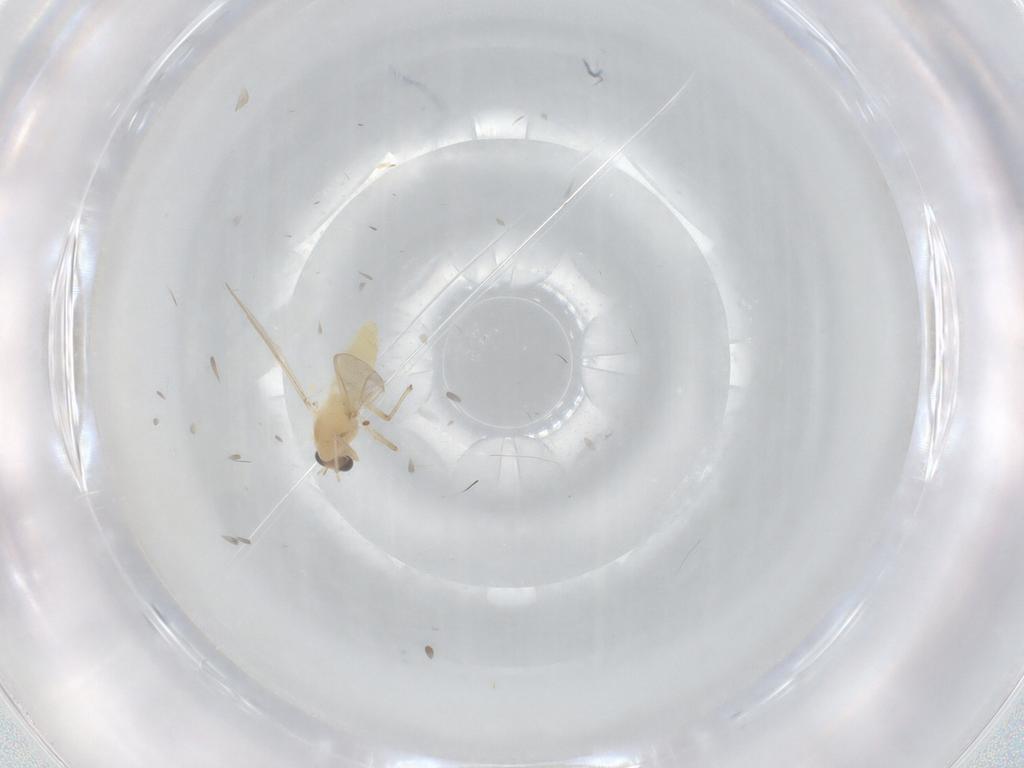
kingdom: Animalia
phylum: Arthropoda
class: Insecta
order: Diptera
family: Chironomidae
